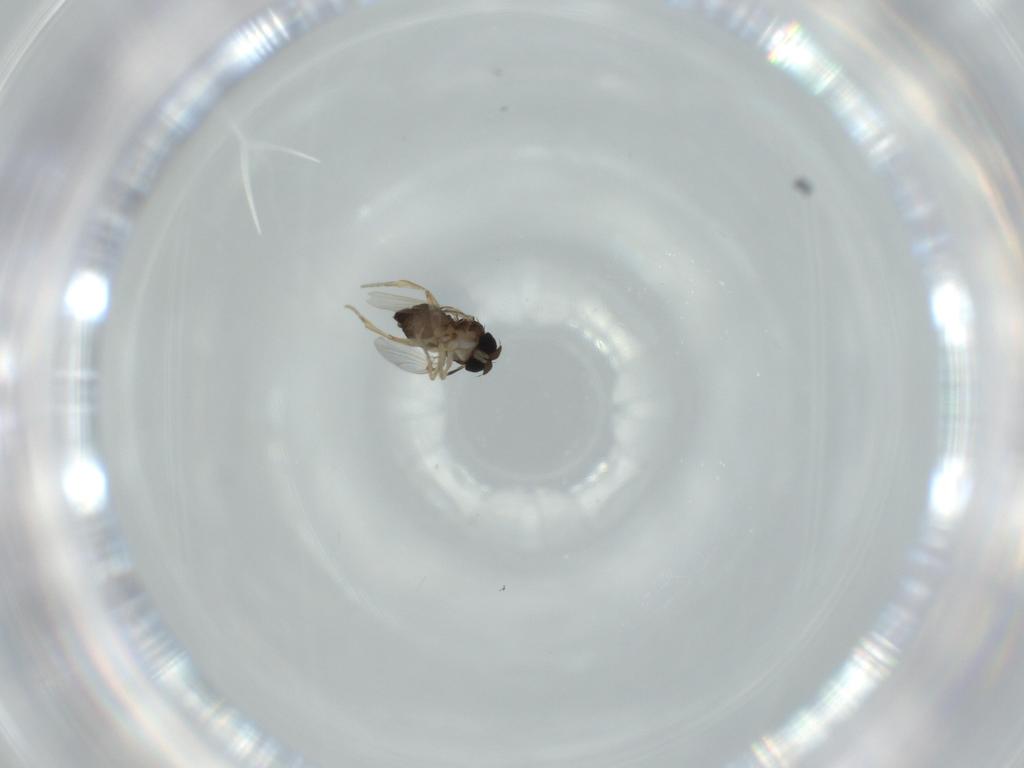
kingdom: Animalia
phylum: Arthropoda
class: Insecta
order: Diptera
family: Phoridae
